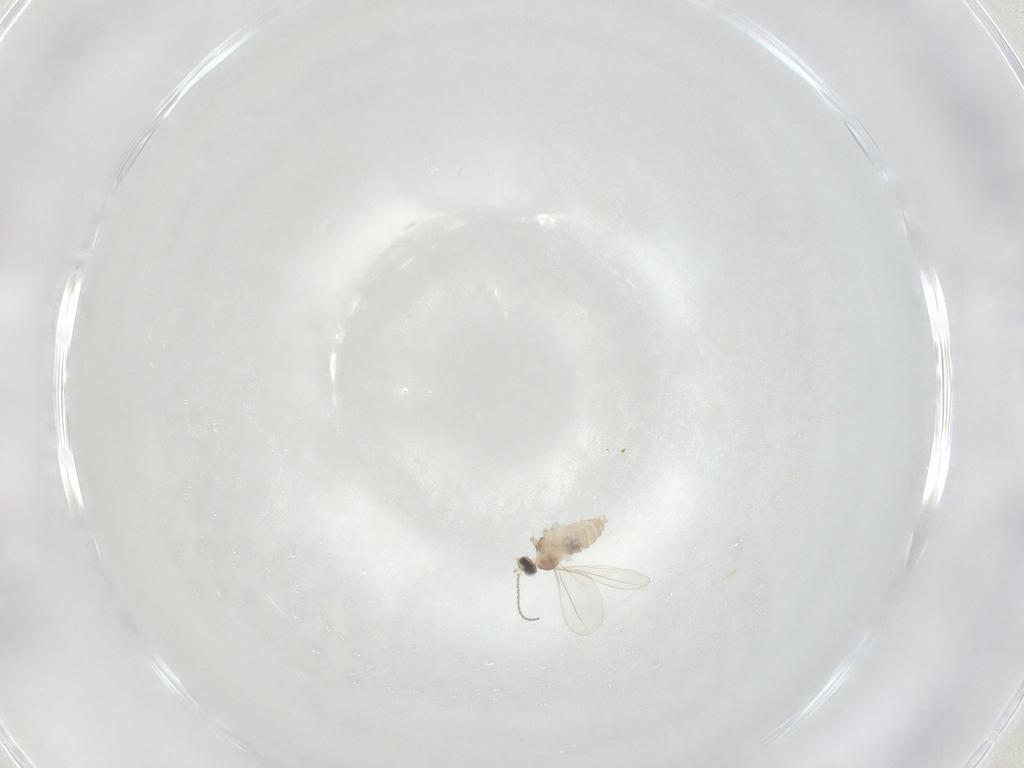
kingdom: Animalia
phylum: Arthropoda
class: Insecta
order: Diptera
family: Cecidomyiidae
